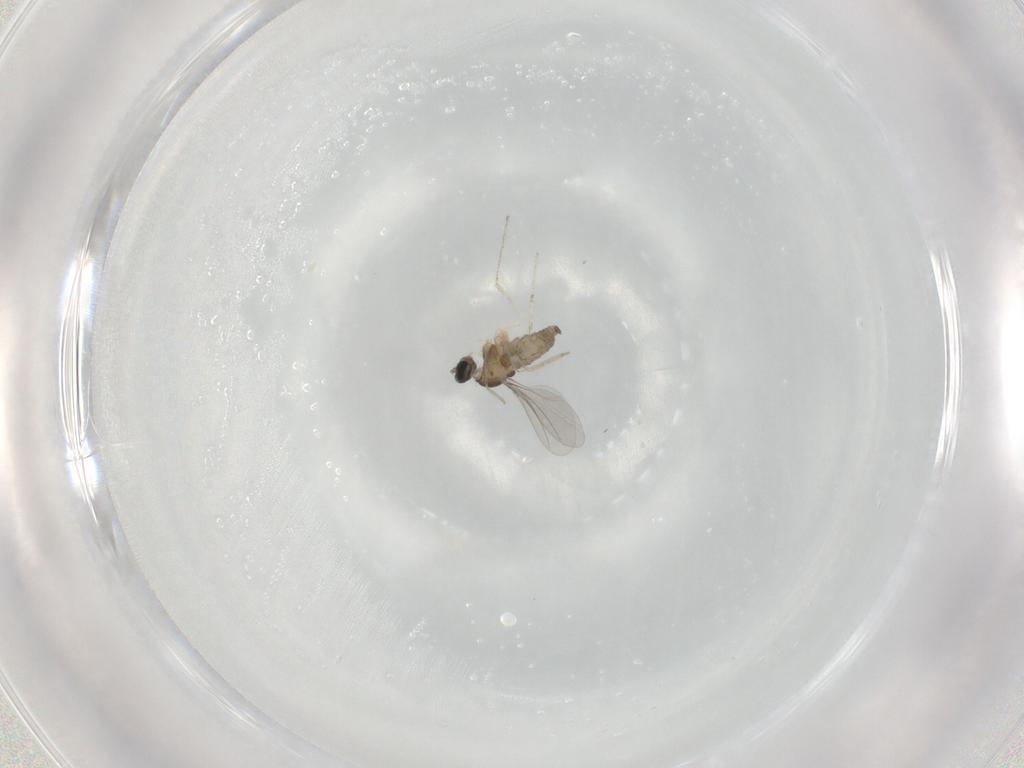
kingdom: Animalia
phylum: Arthropoda
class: Insecta
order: Diptera
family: Cecidomyiidae
